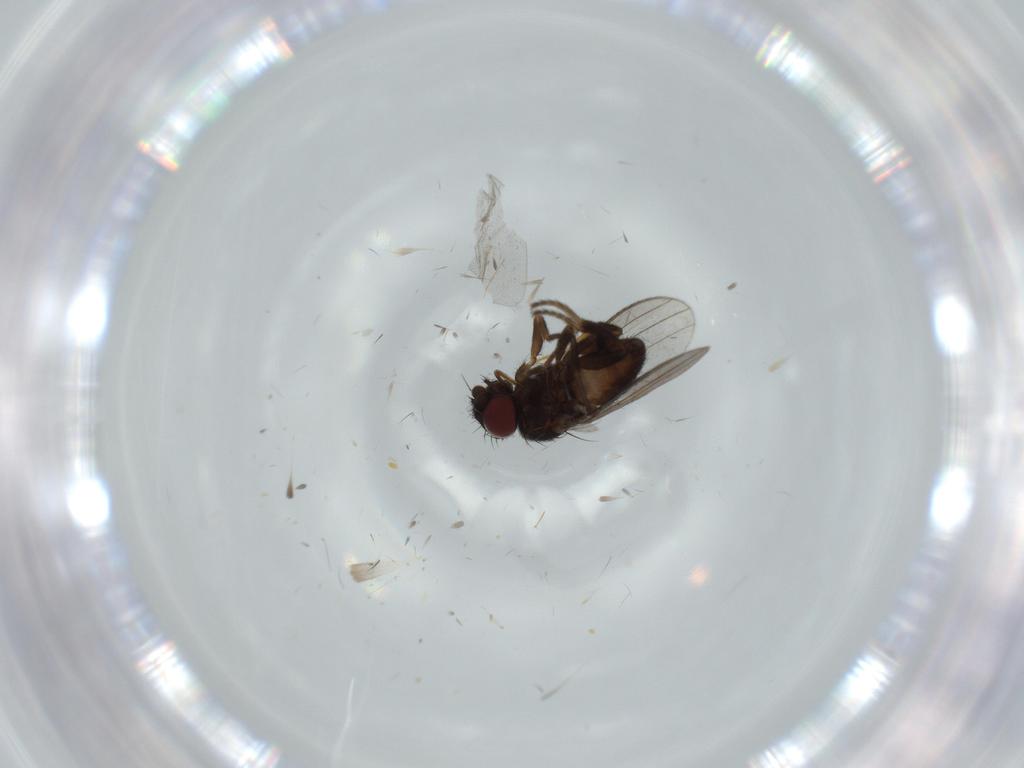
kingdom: Animalia
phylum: Arthropoda
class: Insecta
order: Diptera
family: Milichiidae
